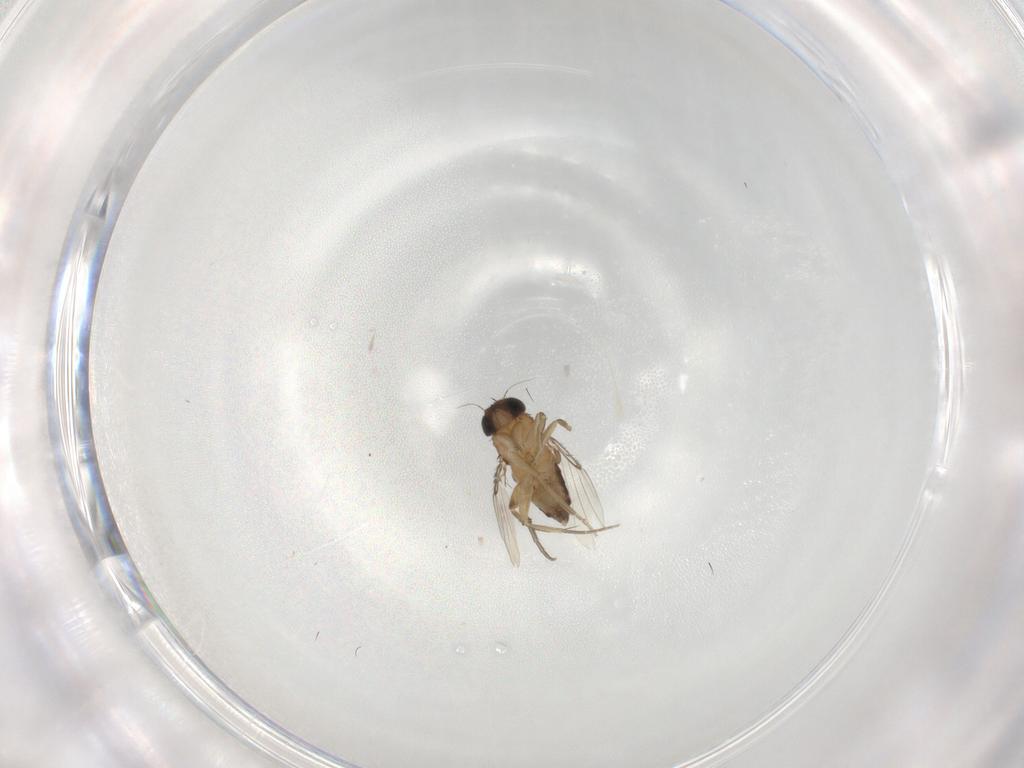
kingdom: Animalia
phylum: Arthropoda
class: Insecta
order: Diptera
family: Phoridae
